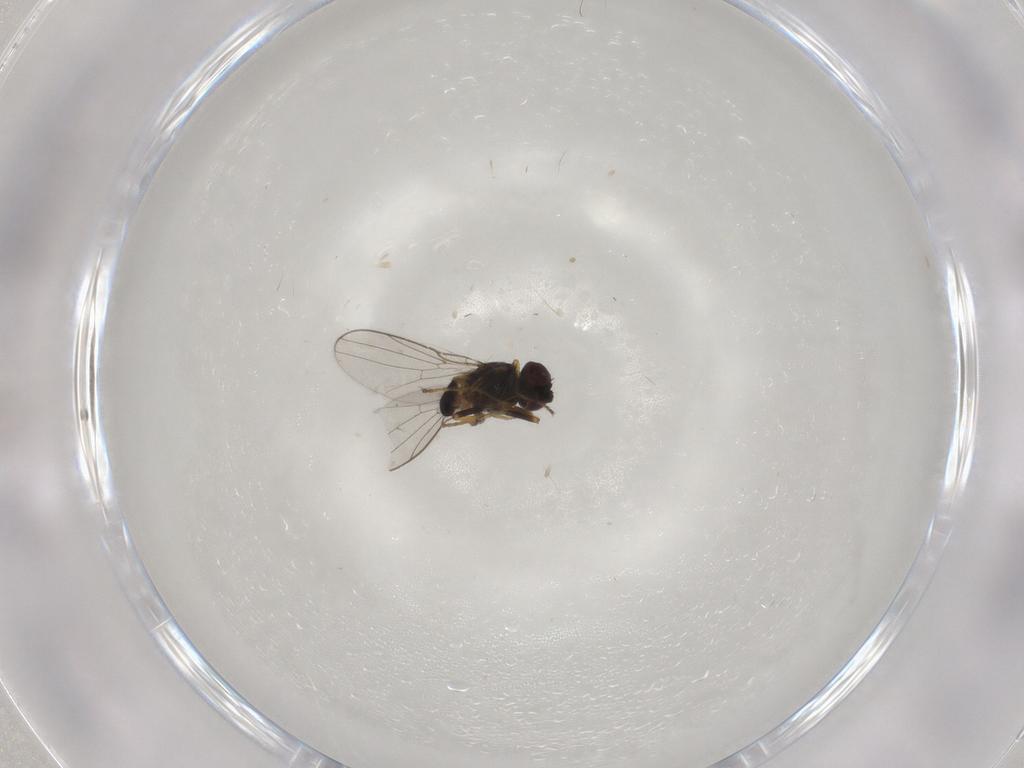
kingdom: Animalia
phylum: Arthropoda
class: Insecta
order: Diptera
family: Chloropidae
